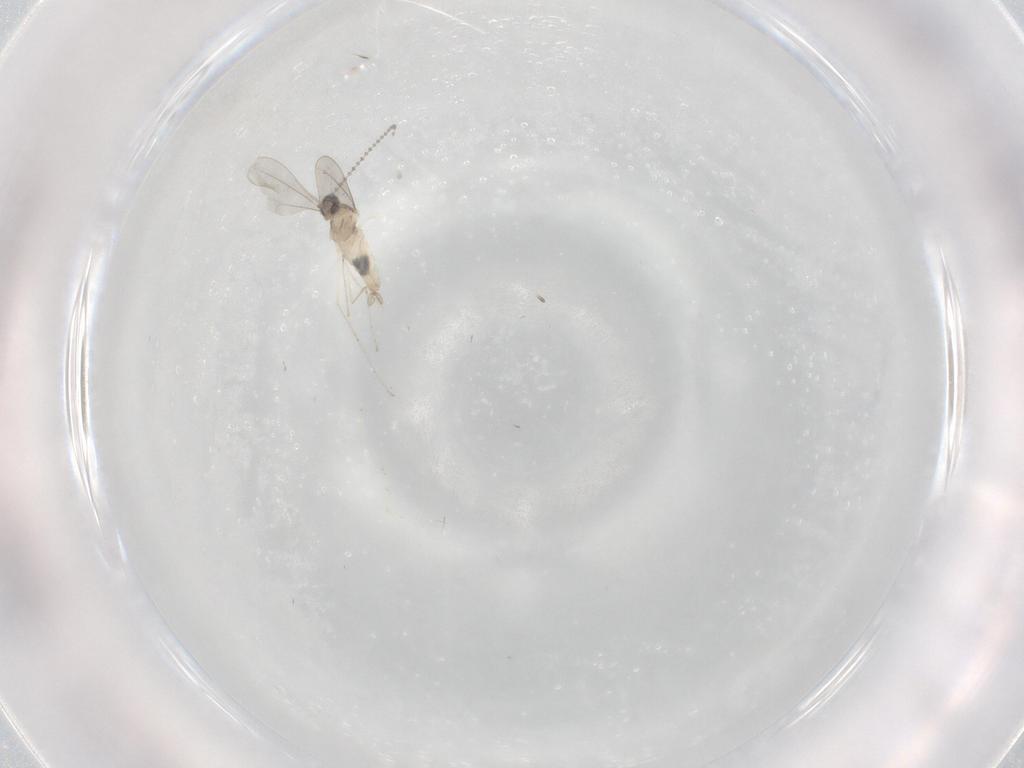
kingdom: Animalia
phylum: Arthropoda
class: Insecta
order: Diptera
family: Cecidomyiidae
